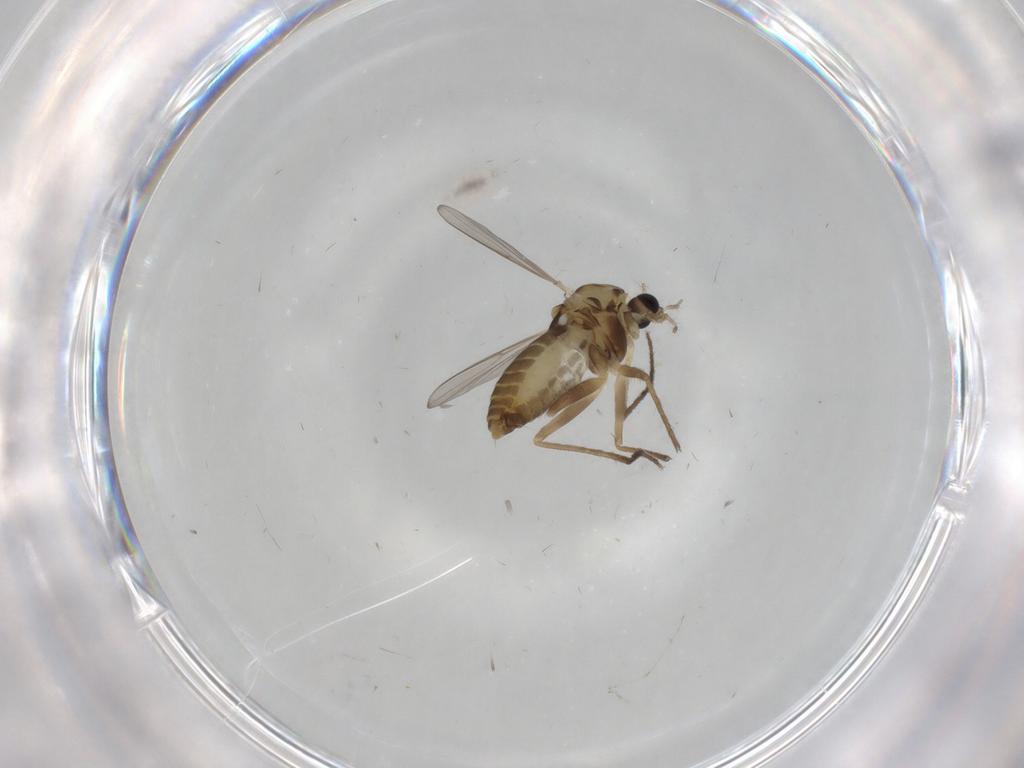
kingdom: Animalia
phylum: Arthropoda
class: Insecta
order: Diptera
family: Chironomidae
